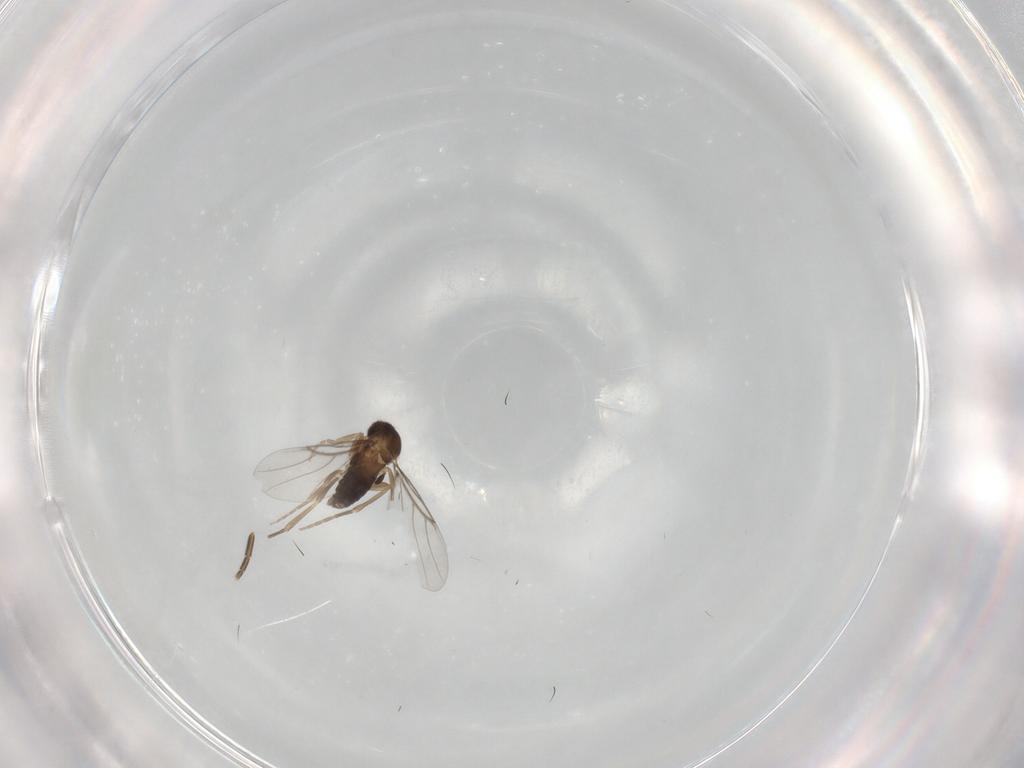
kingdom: Animalia
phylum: Arthropoda
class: Insecta
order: Diptera
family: Phoridae
